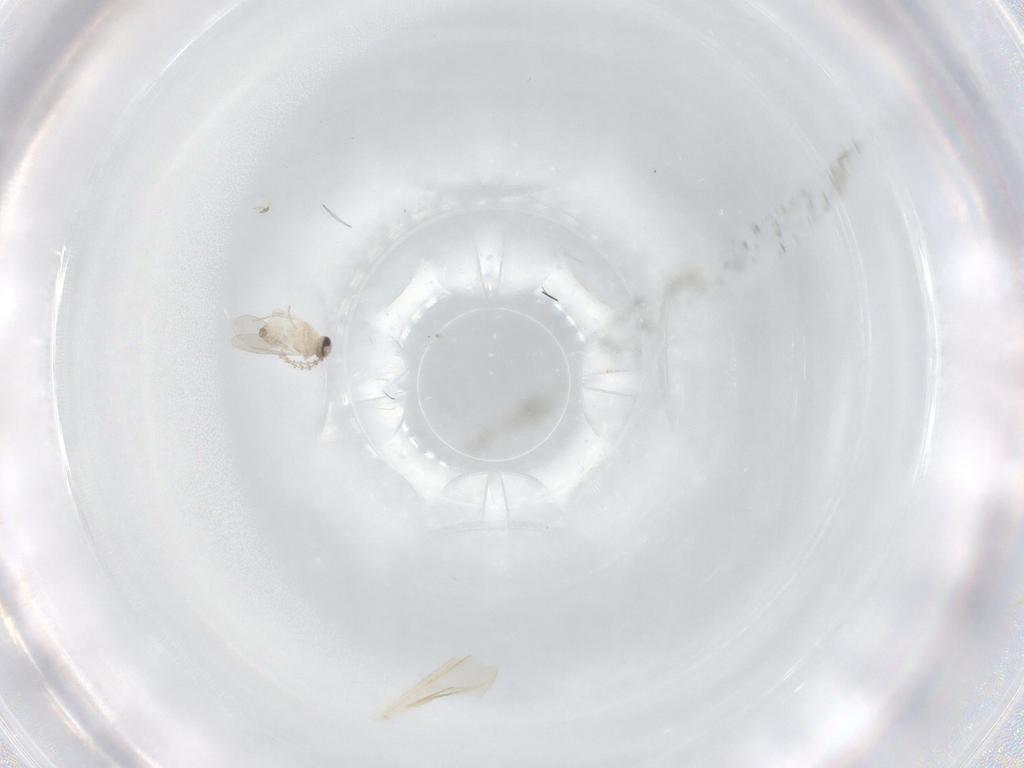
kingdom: Animalia
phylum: Arthropoda
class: Insecta
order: Diptera
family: Cecidomyiidae
